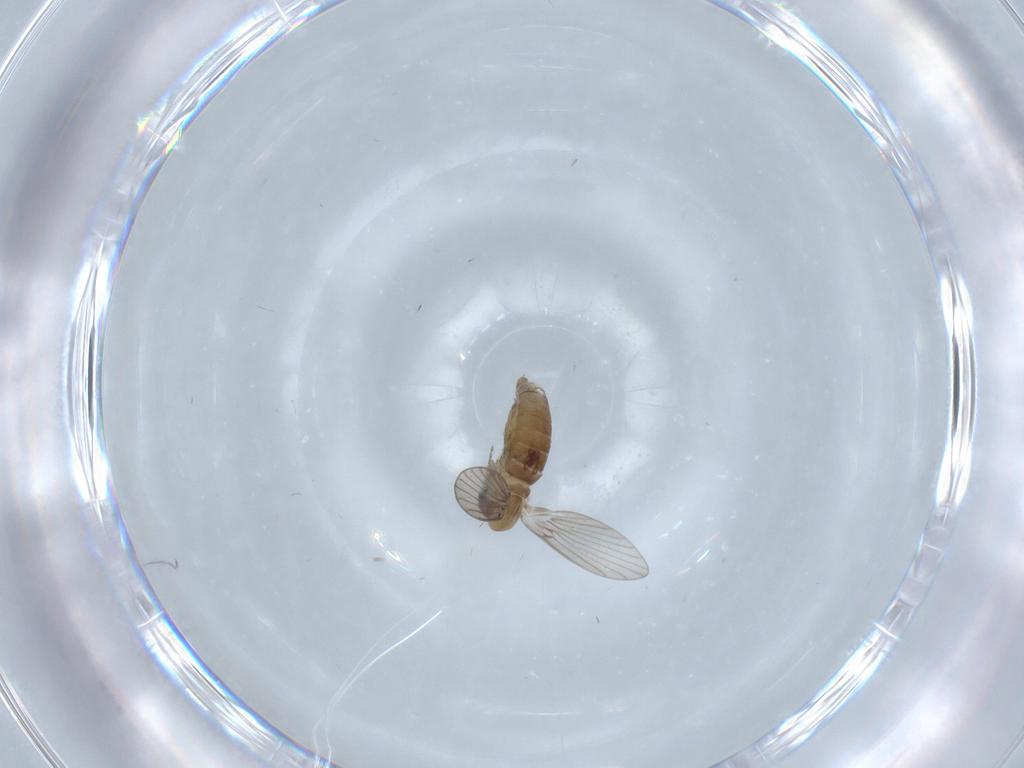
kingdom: Animalia
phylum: Arthropoda
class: Insecta
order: Diptera
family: Psychodidae
